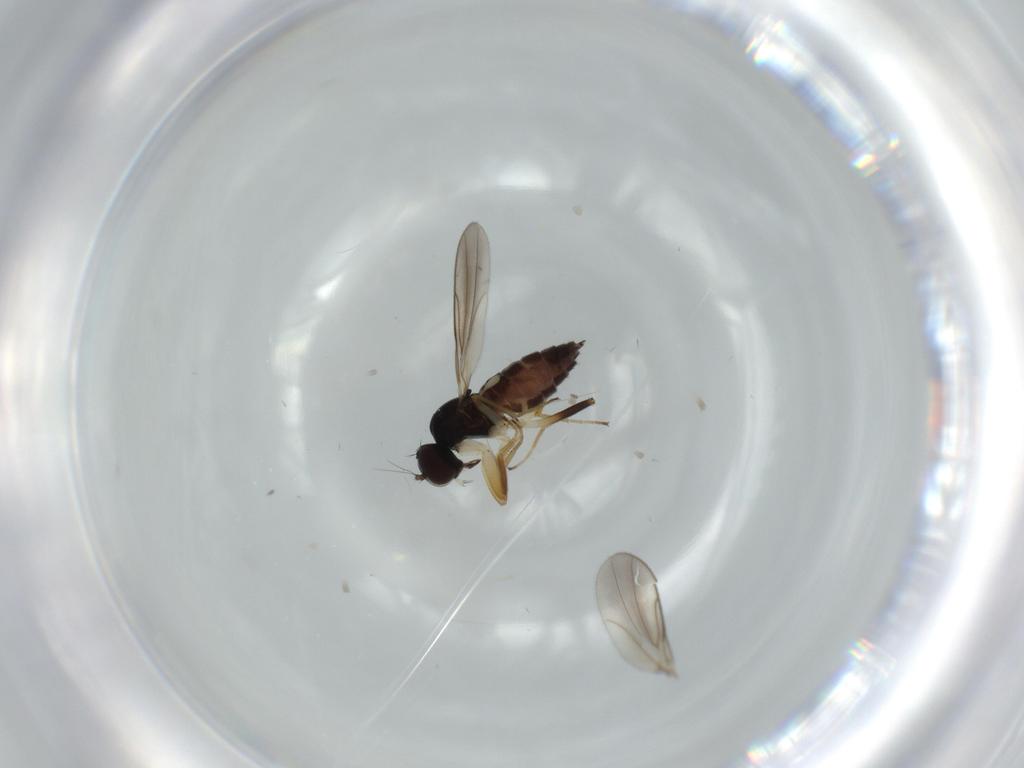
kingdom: Animalia
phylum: Arthropoda
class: Insecta
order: Diptera
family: Hybotidae
